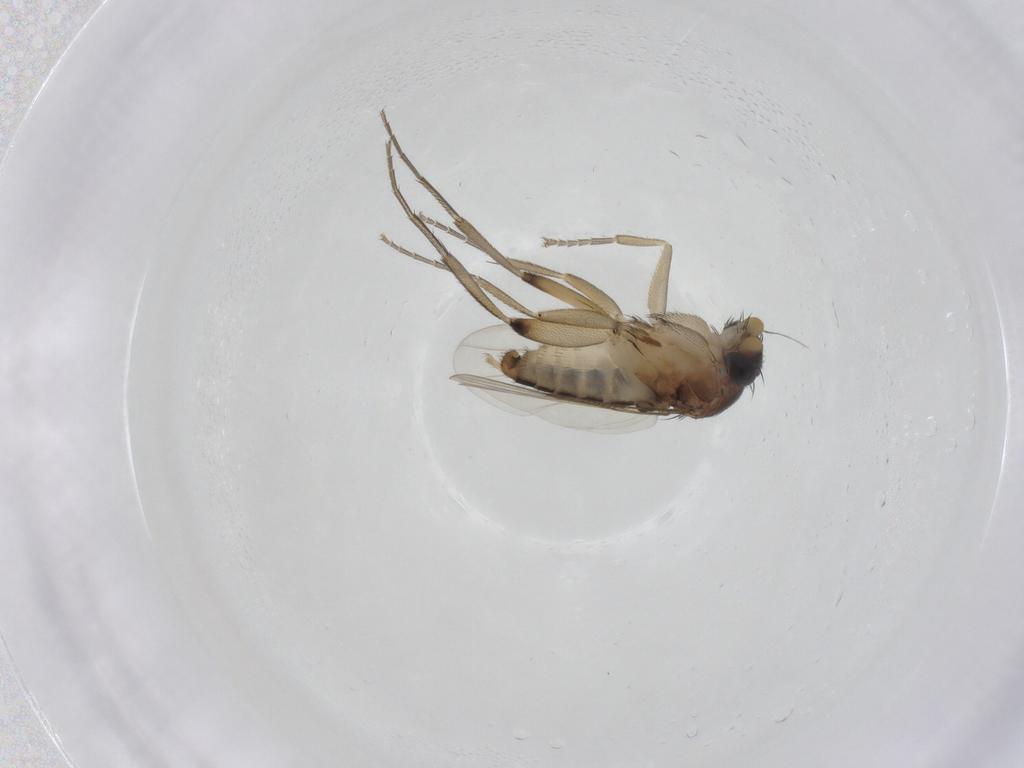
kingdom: Animalia
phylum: Arthropoda
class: Insecta
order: Diptera
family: Phoridae
